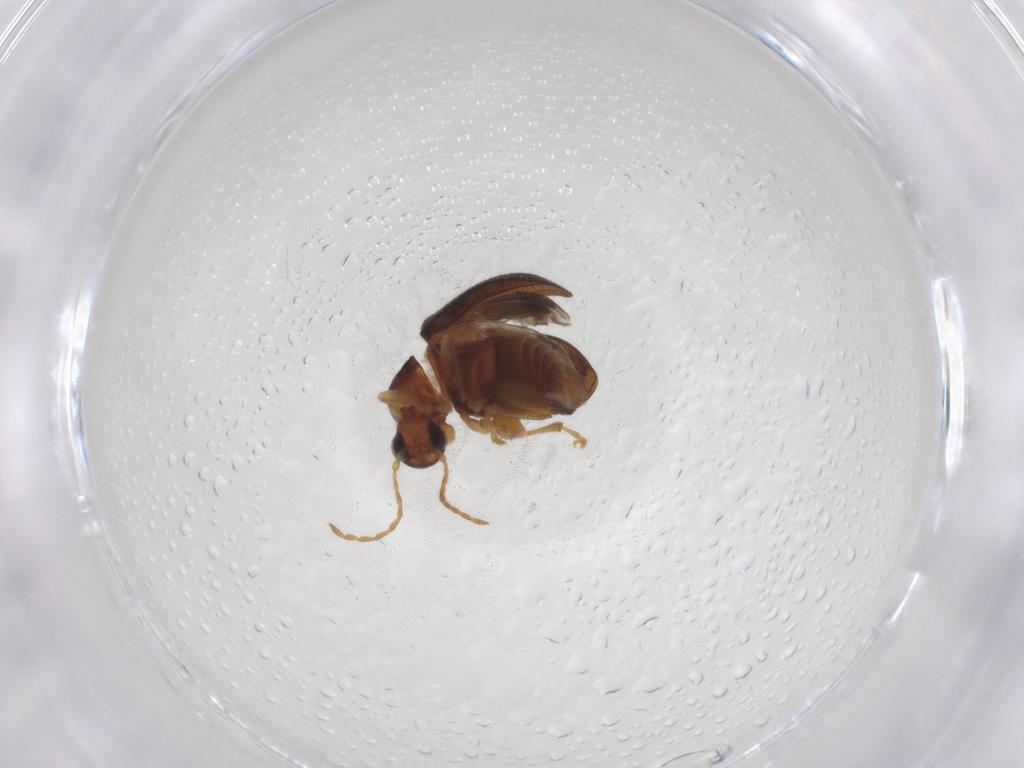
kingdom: Animalia
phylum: Arthropoda
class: Insecta
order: Coleoptera
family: Chrysomelidae
